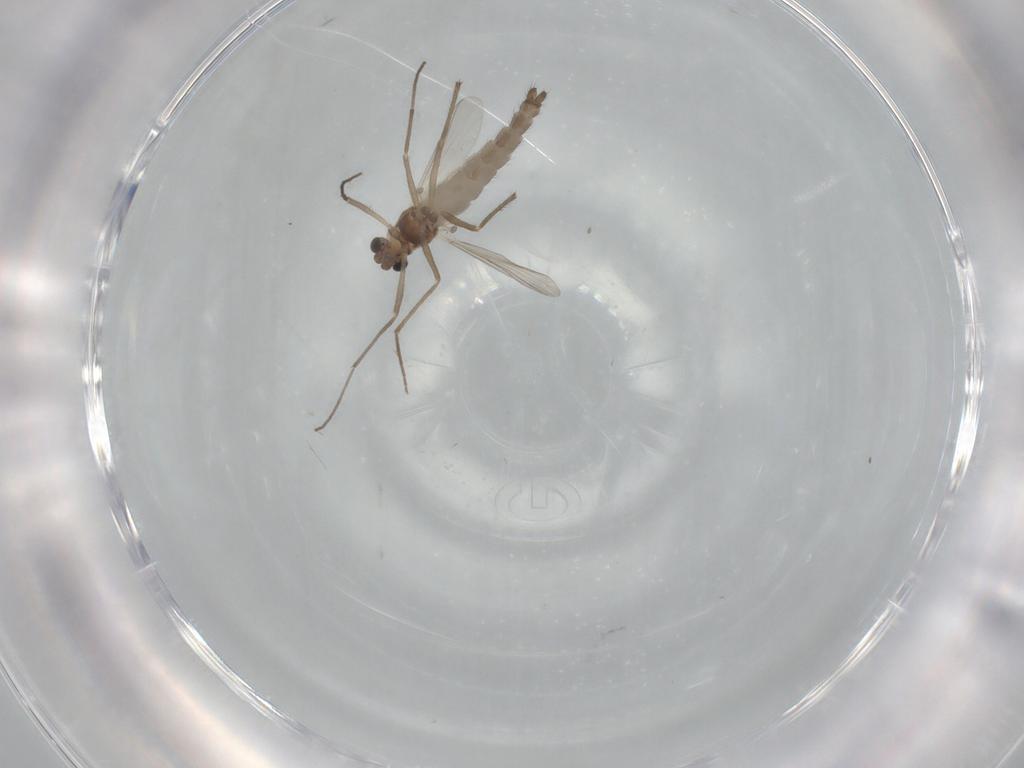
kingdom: Animalia
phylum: Arthropoda
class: Insecta
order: Diptera
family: Chironomidae
